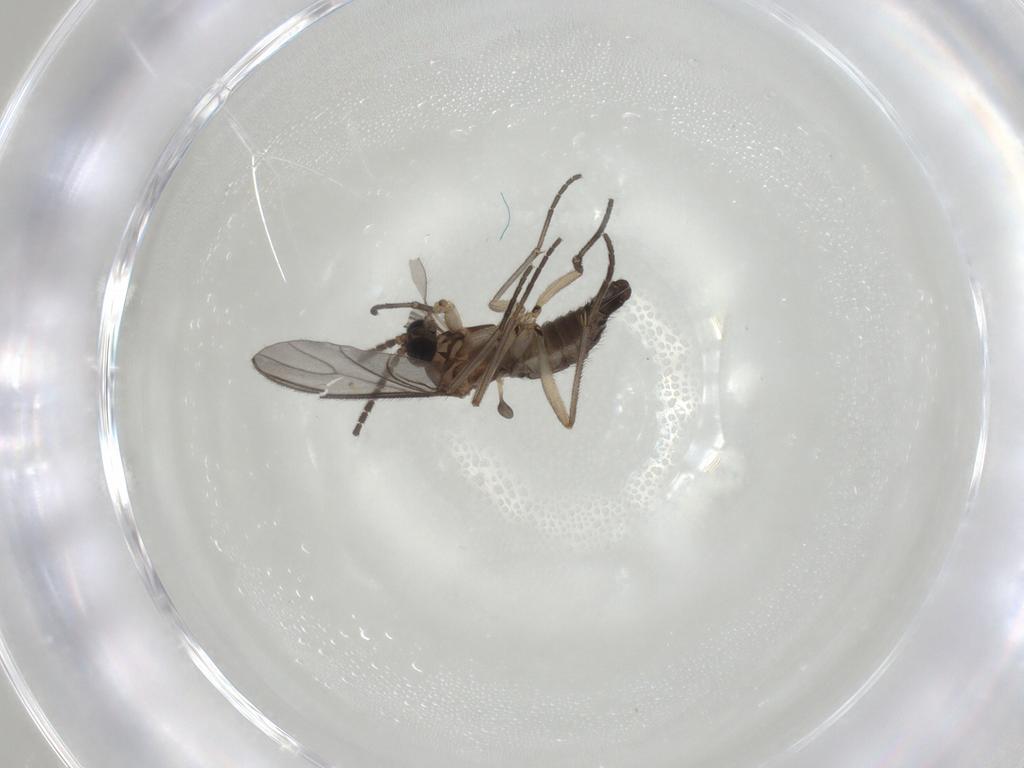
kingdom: Animalia
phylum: Arthropoda
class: Insecta
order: Diptera
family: Sciaridae
